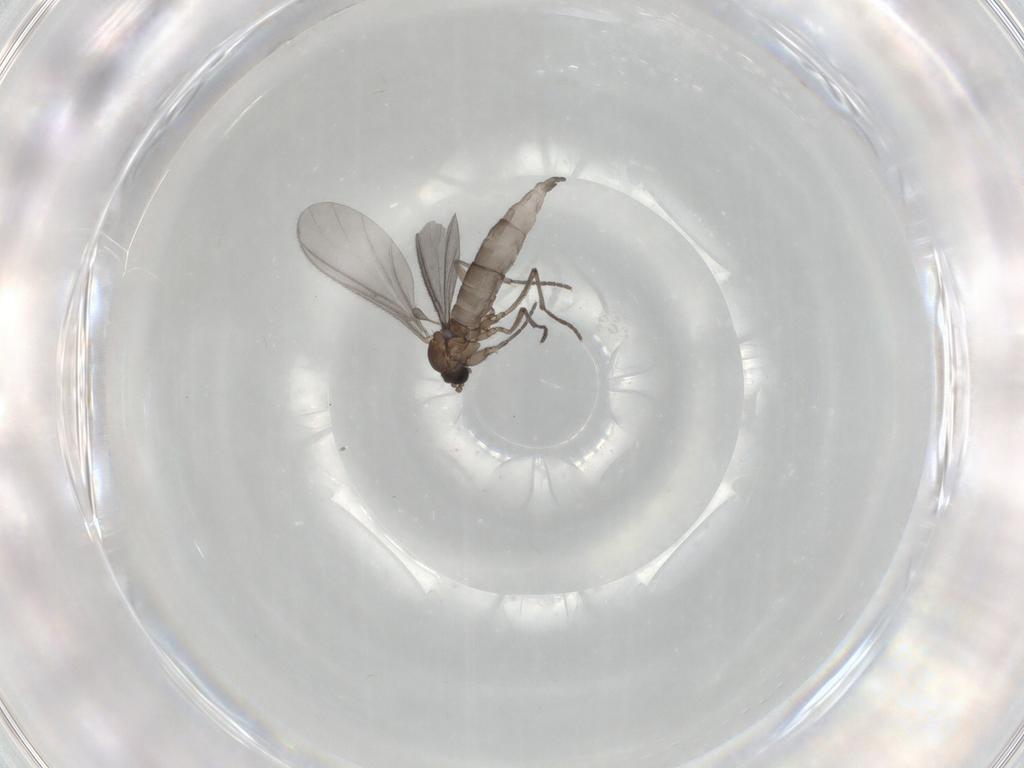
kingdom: Animalia
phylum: Arthropoda
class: Insecta
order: Diptera
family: Sciaridae
